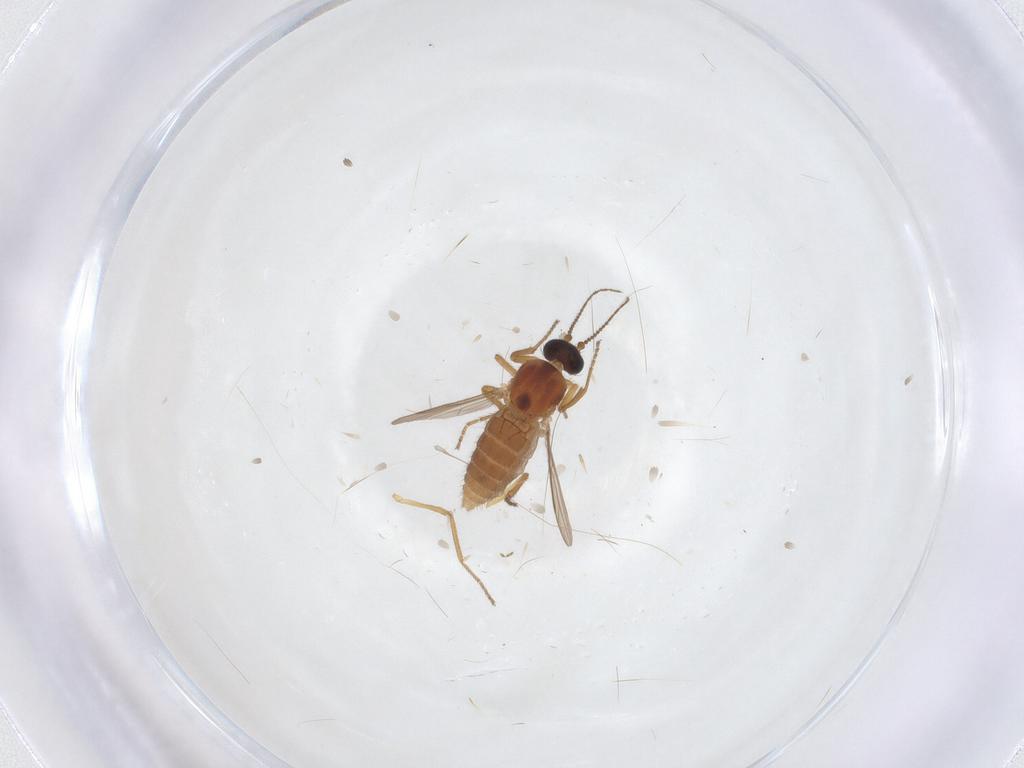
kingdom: Animalia
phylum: Arthropoda
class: Insecta
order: Diptera
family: Ceratopogonidae
